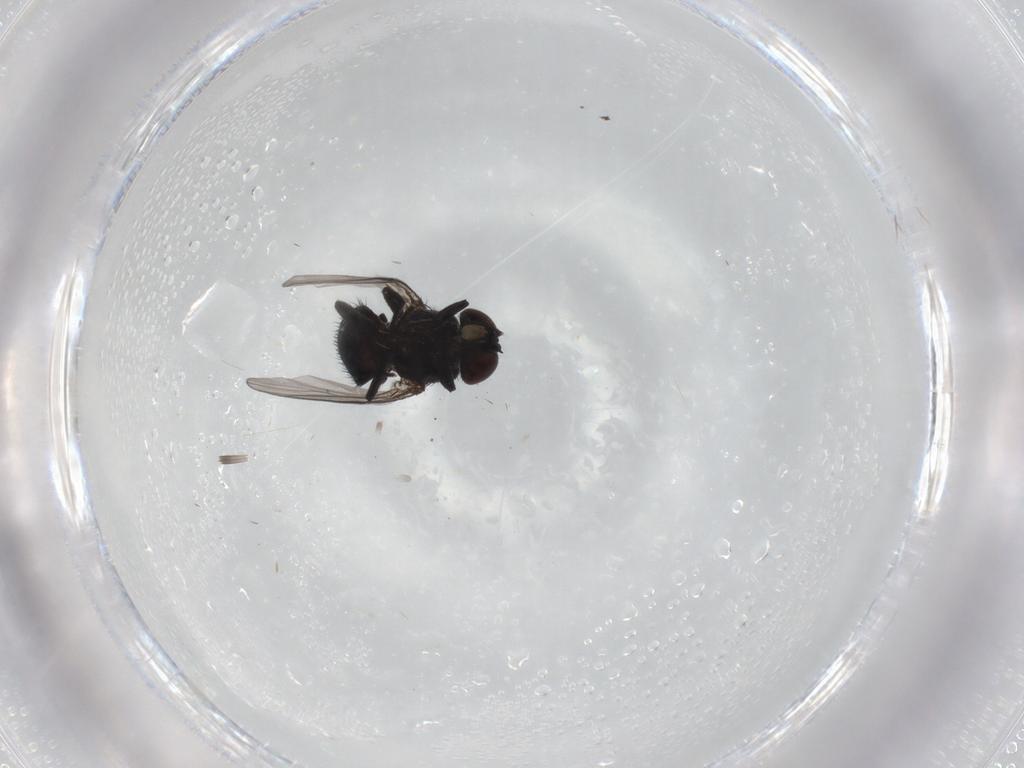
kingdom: Animalia
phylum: Arthropoda
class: Insecta
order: Diptera
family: Agromyzidae
